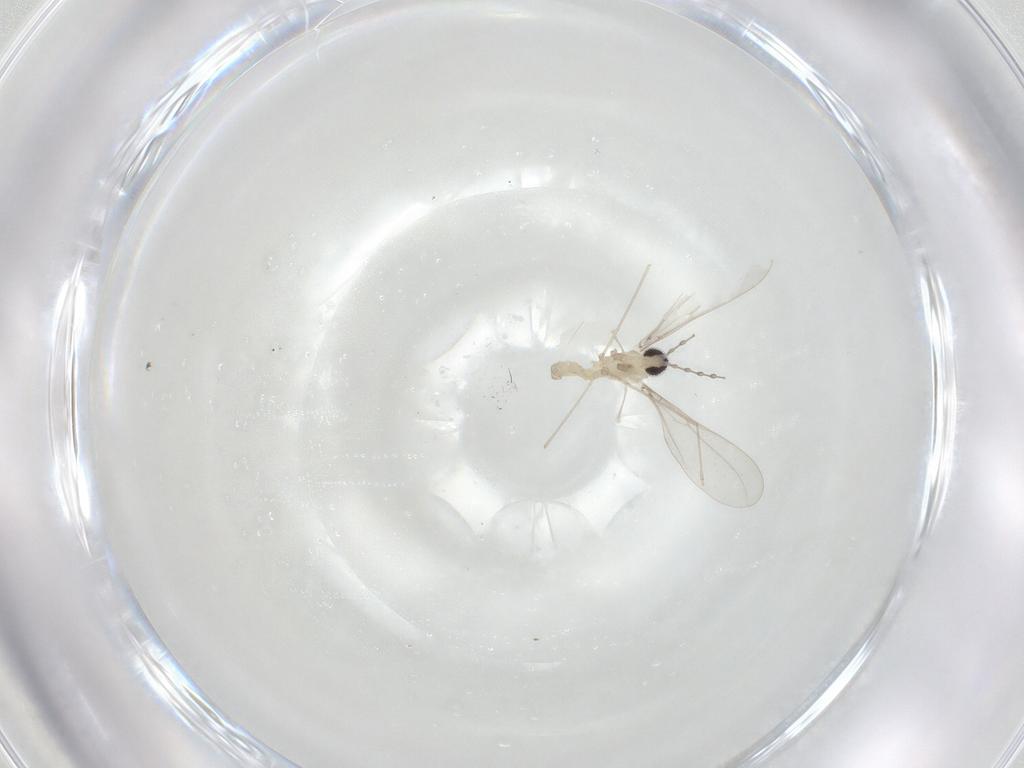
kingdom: Animalia
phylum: Arthropoda
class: Insecta
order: Diptera
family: Cecidomyiidae
